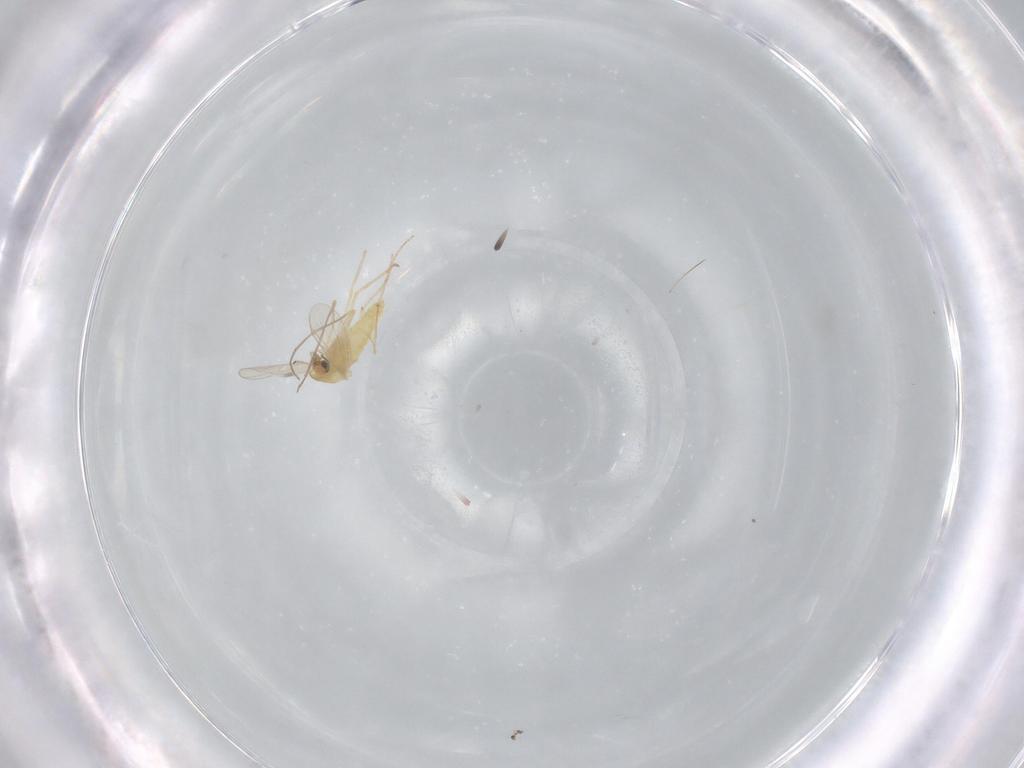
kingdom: Animalia
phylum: Arthropoda
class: Insecta
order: Diptera
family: Chironomidae
